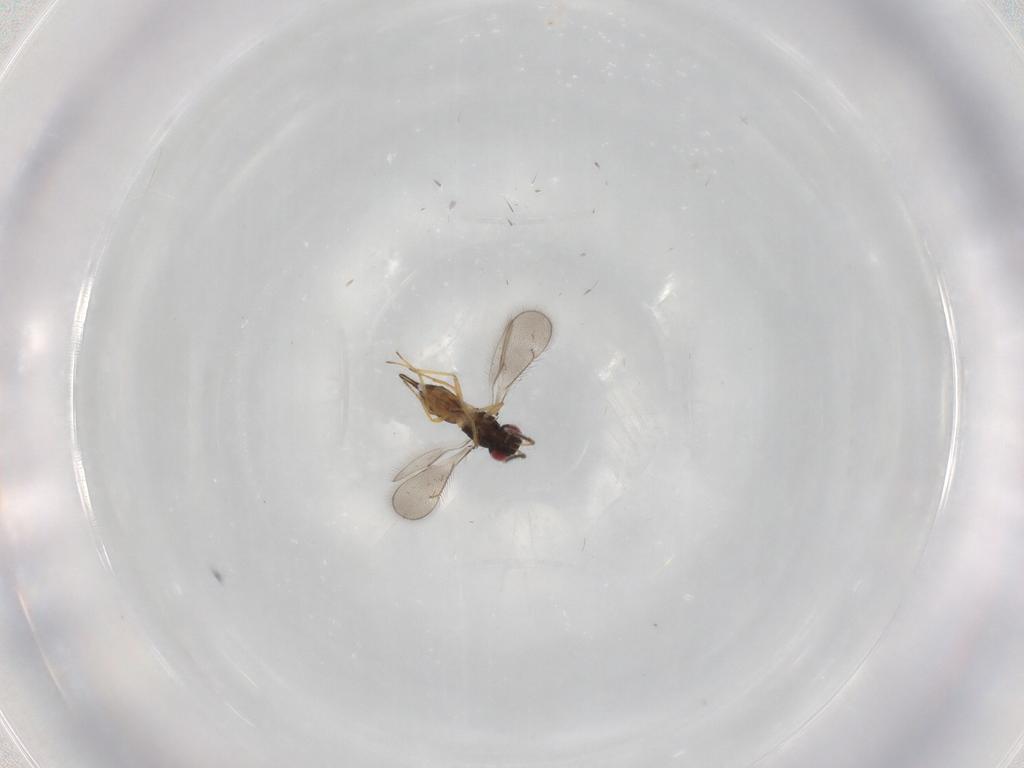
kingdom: Animalia
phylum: Arthropoda
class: Insecta
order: Hymenoptera
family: Eulophidae
